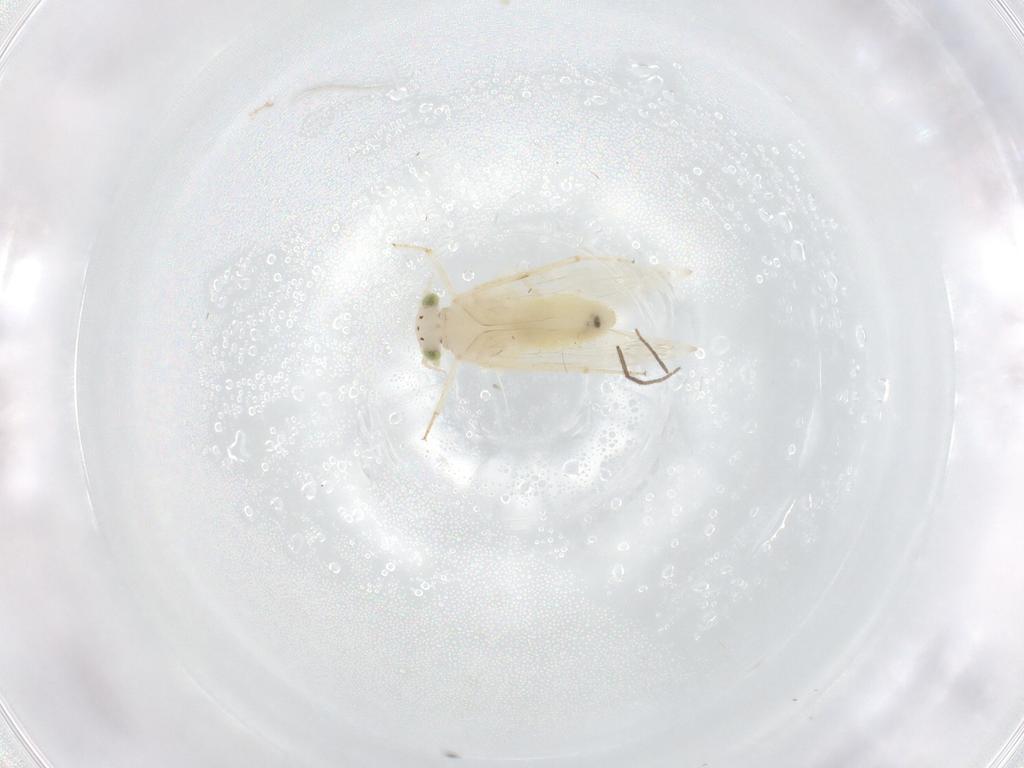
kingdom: Animalia
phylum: Arthropoda
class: Insecta
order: Psocodea
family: Lepidopsocidae
